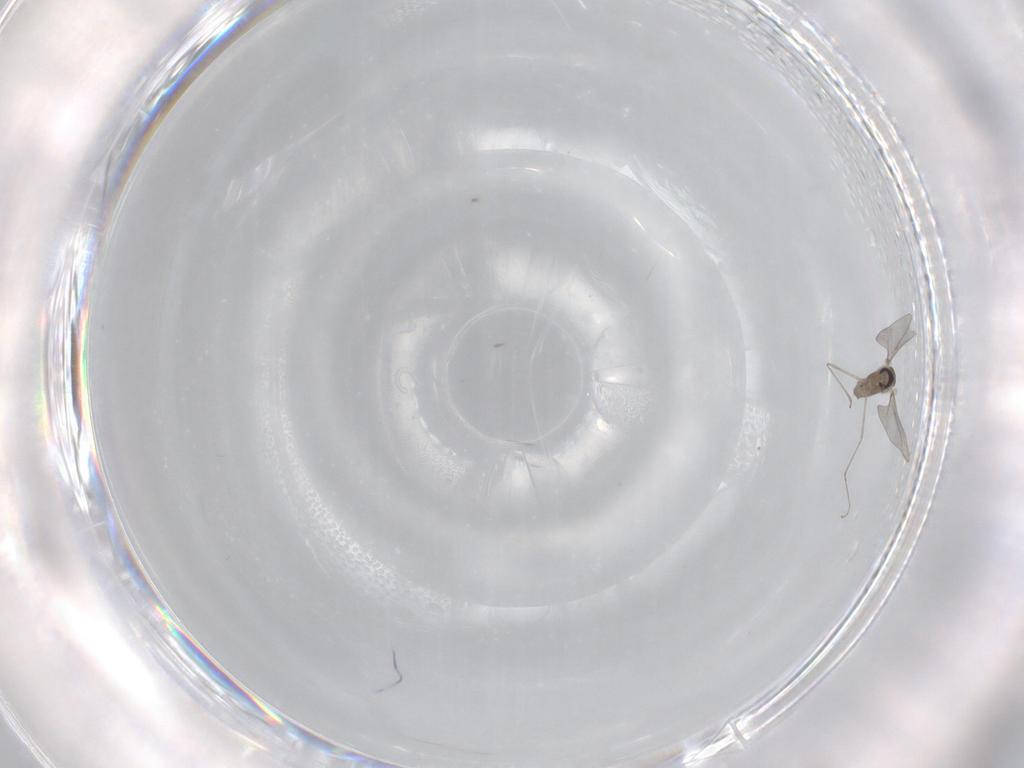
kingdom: Animalia
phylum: Arthropoda
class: Insecta
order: Diptera
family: Cecidomyiidae
